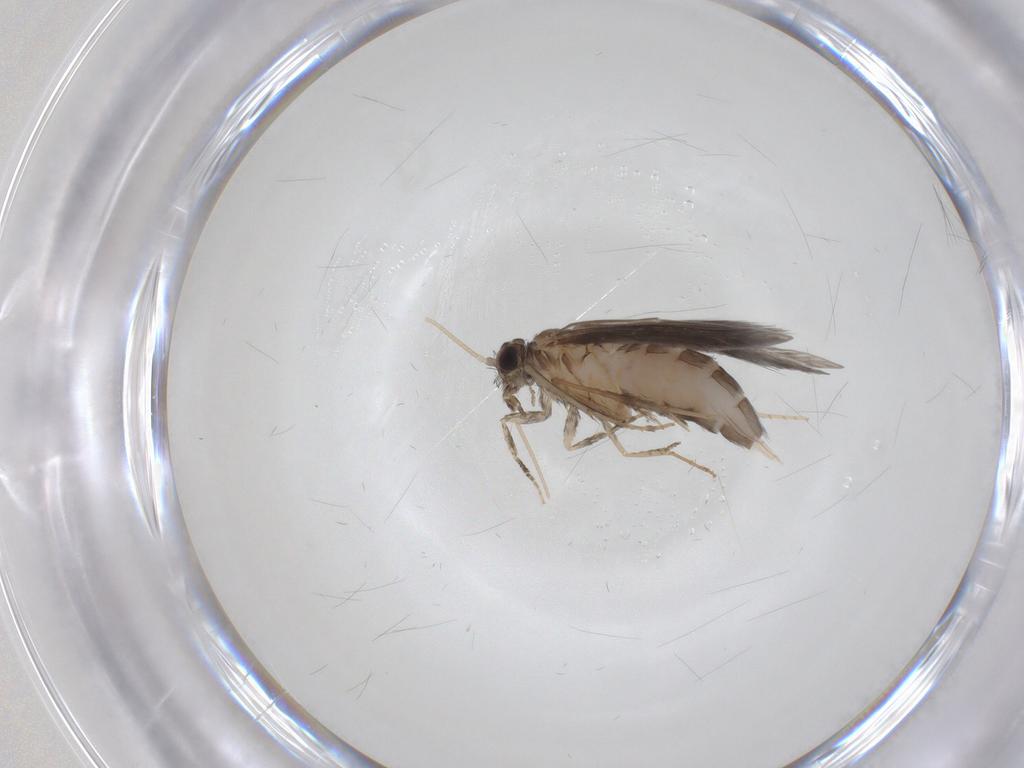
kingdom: Animalia
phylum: Arthropoda
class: Insecta
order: Trichoptera
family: Hydroptilidae
